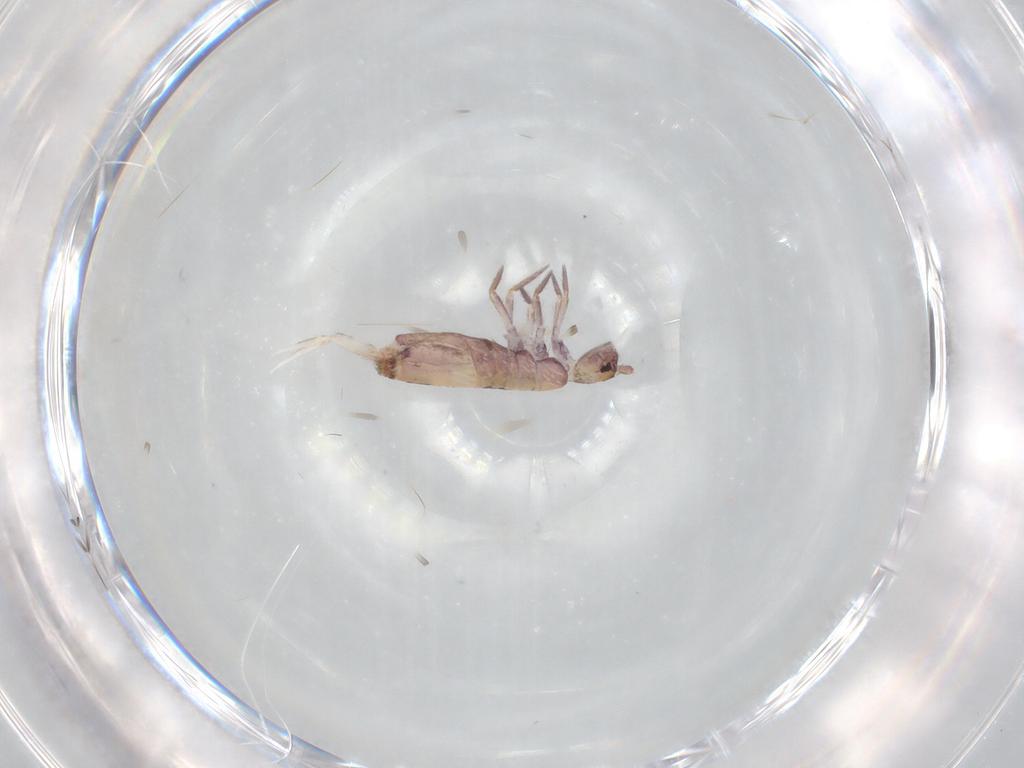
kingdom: Animalia
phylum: Arthropoda
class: Collembola
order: Entomobryomorpha
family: Entomobryidae
